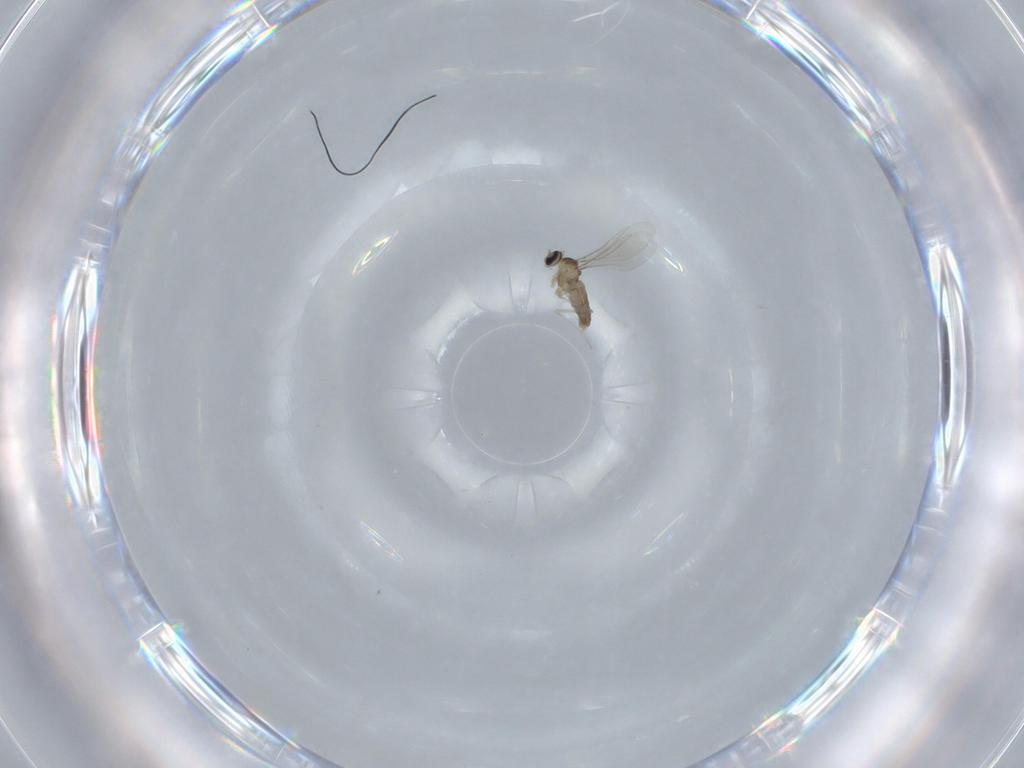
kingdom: Animalia
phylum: Arthropoda
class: Insecta
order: Diptera
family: Cecidomyiidae
